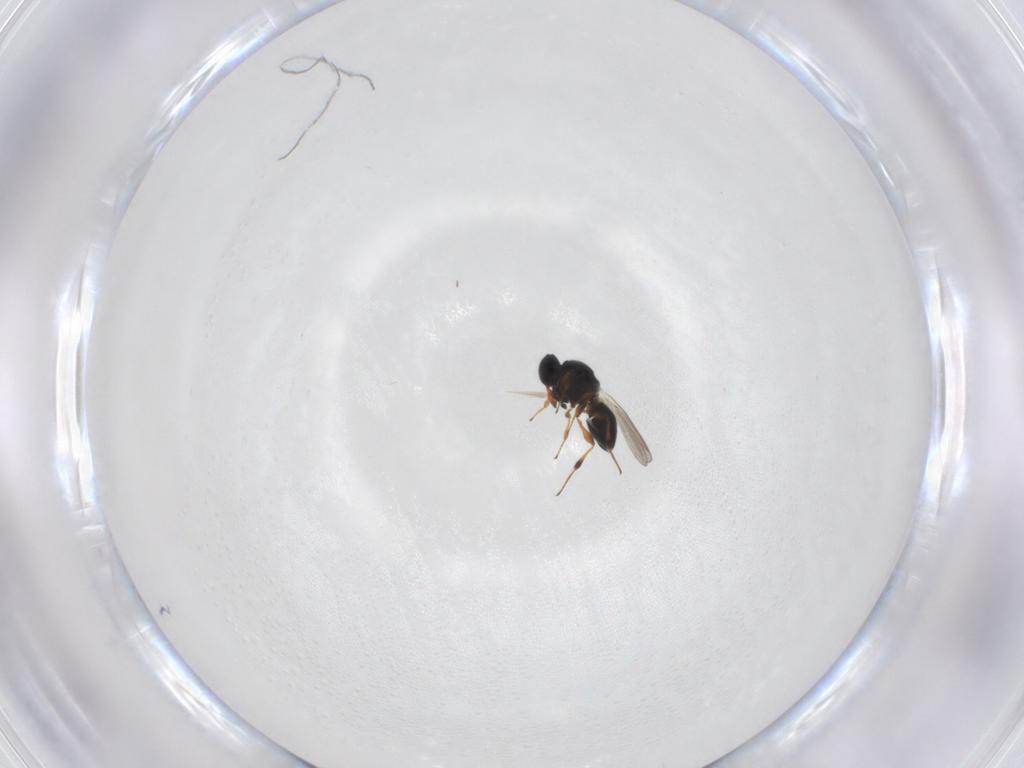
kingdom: Animalia
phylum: Arthropoda
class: Insecta
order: Hymenoptera
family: Platygastridae
